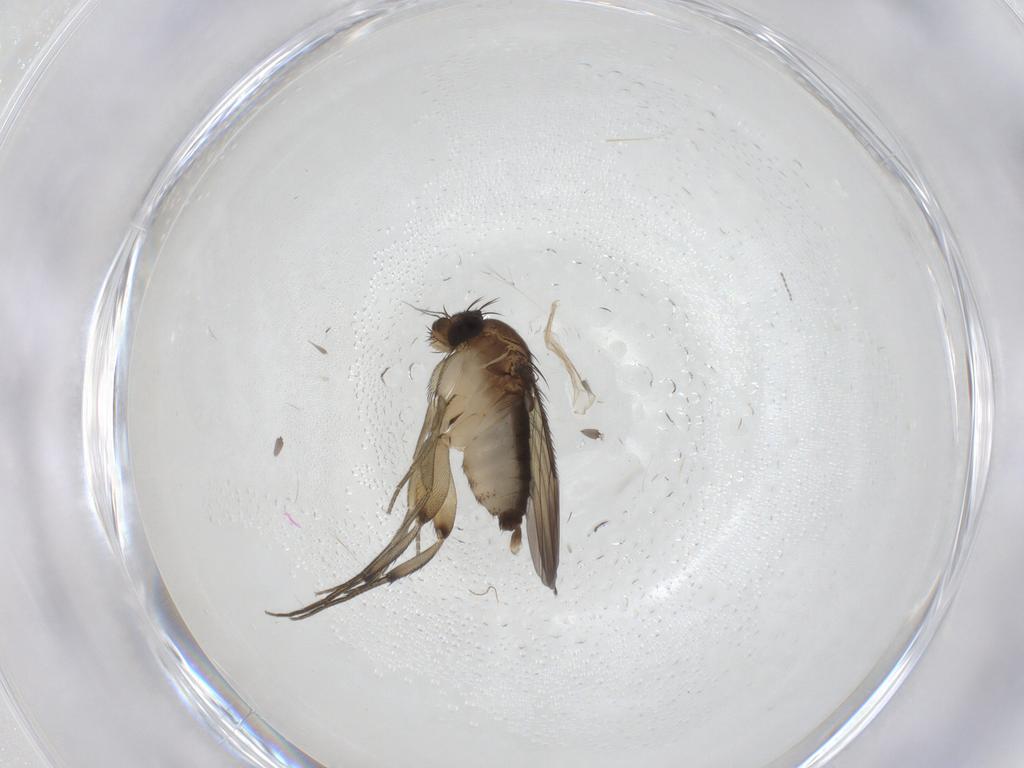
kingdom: Animalia
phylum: Arthropoda
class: Insecta
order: Diptera
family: Phoridae
